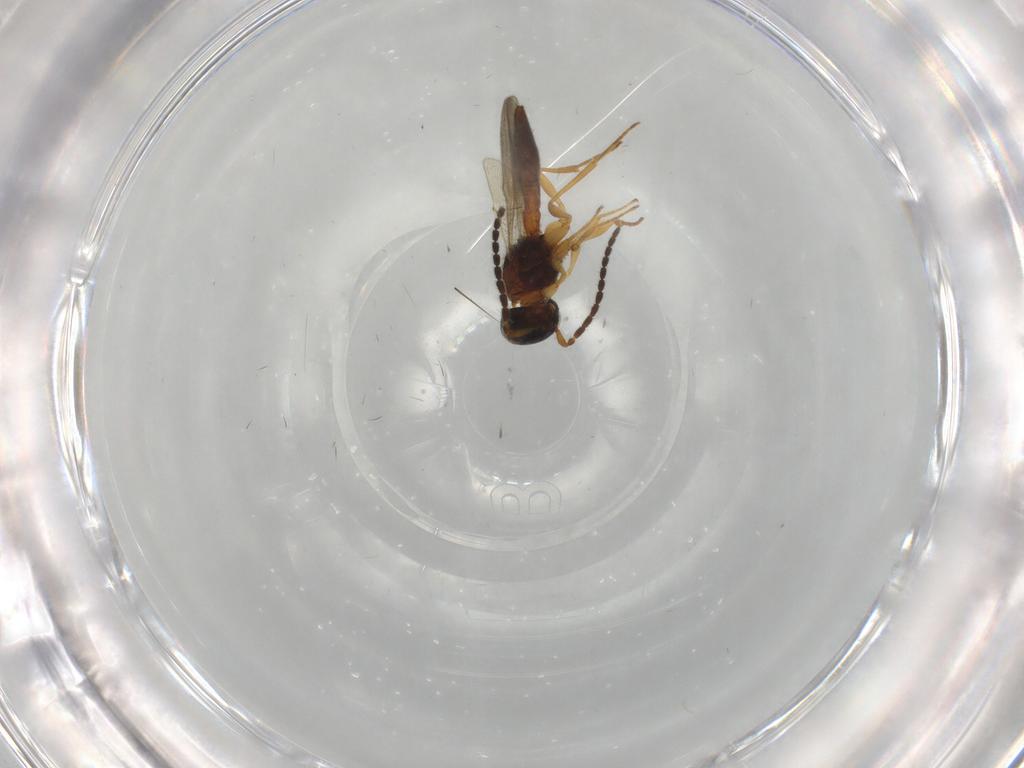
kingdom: Animalia
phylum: Arthropoda
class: Insecta
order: Hymenoptera
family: Scelionidae
